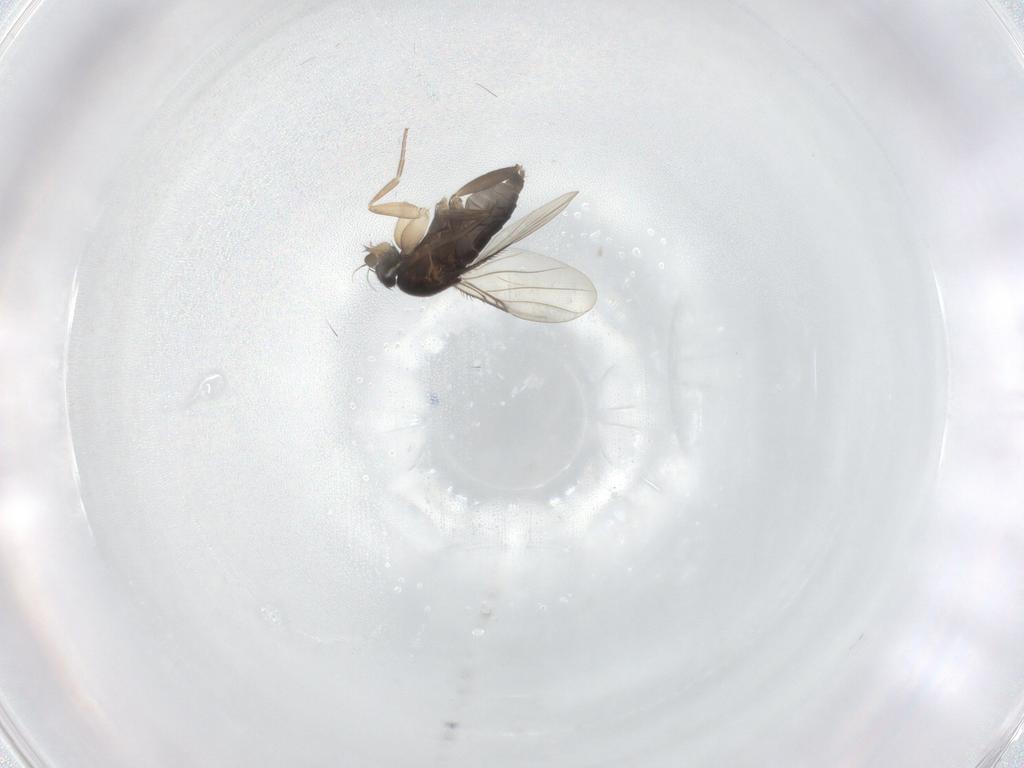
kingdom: Animalia
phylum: Arthropoda
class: Insecta
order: Diptera
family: Phoridae
